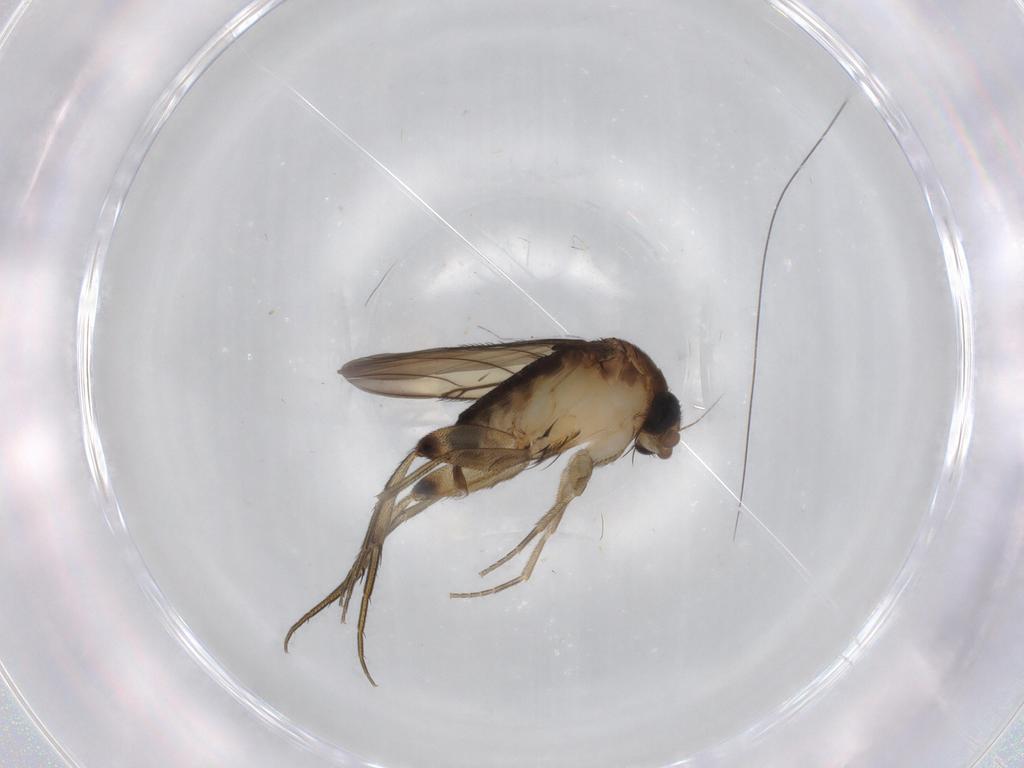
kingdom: Animalia
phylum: Arthropoda
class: Insecta
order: Diptera
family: Phoridae
